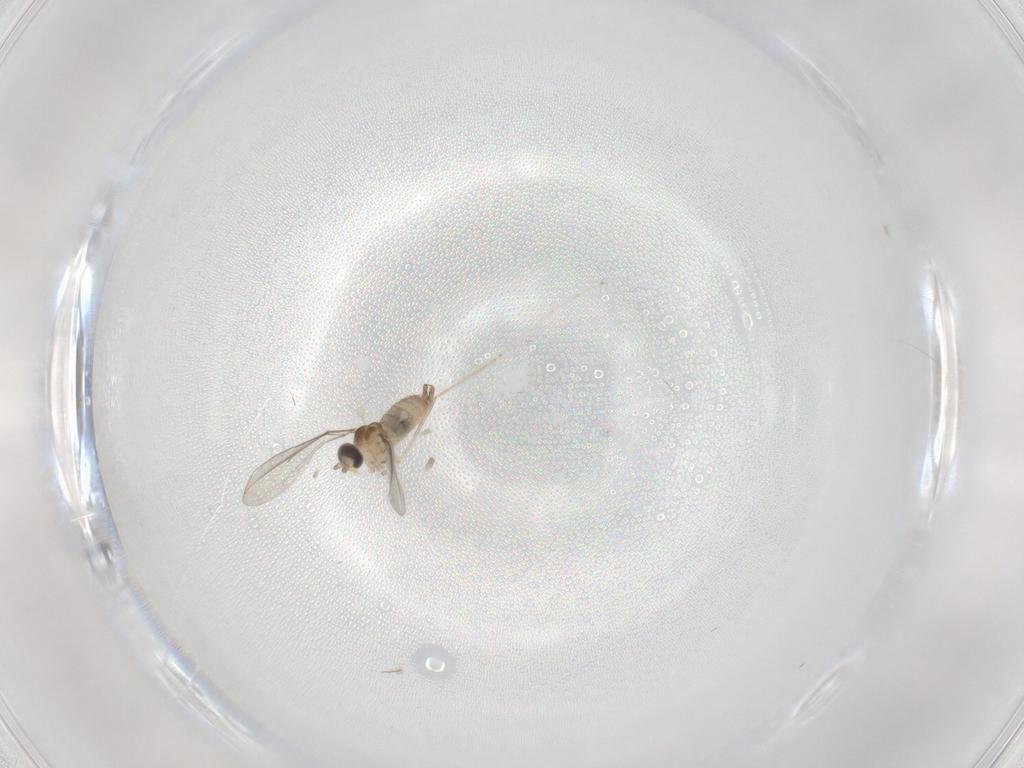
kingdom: Animalia
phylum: Arthropoda
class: Insecta
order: Diptera
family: Cecidomyiidae
